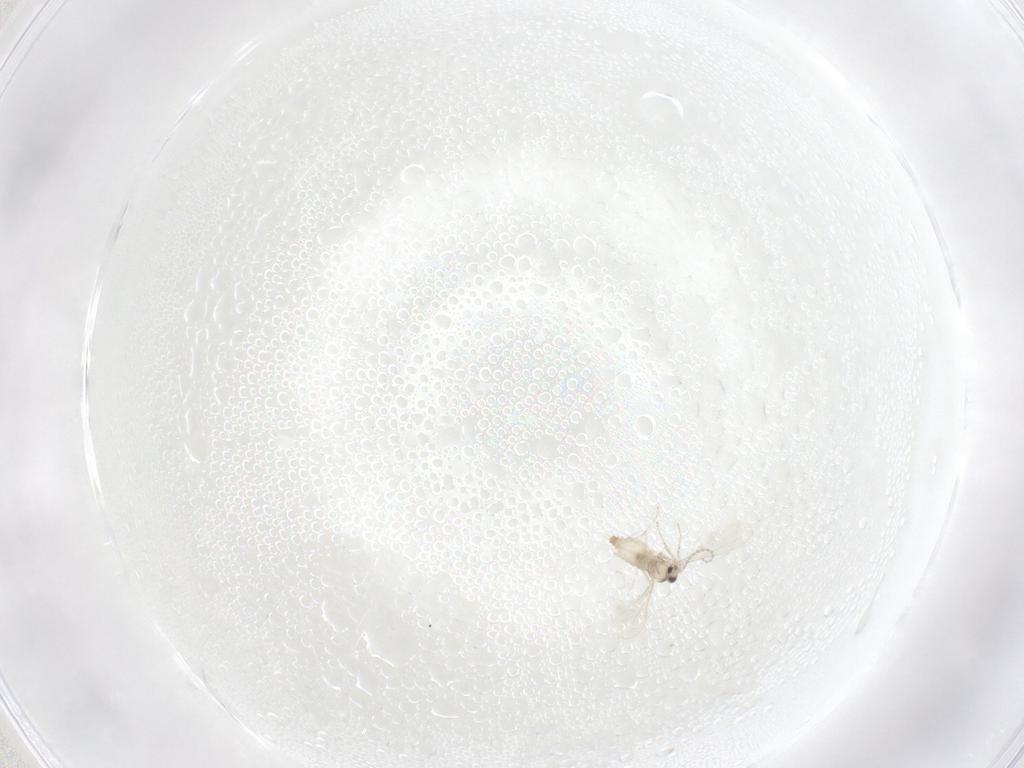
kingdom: Animalia
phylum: Arthropoda
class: Insecta
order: Diptera
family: Cecidomyiidae
